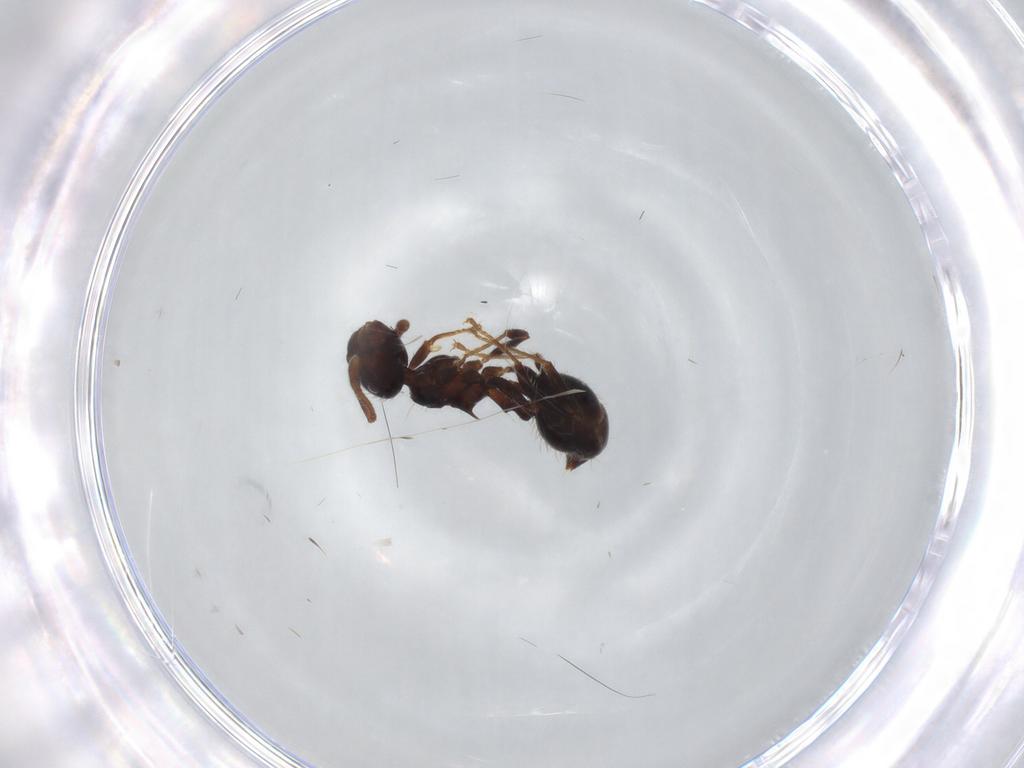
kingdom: Animalia
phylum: Arthropoda
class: Insecta
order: Hymenoptera
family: Formicidae
